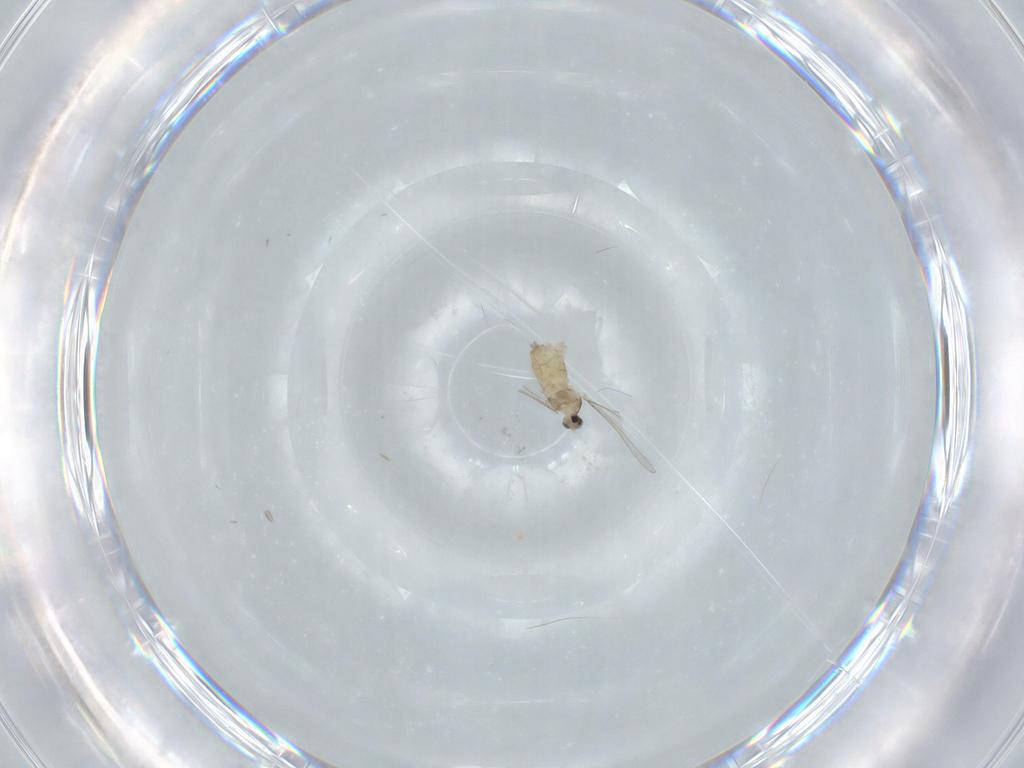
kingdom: Animalia
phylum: Arthropoda
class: Insecta
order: Diptera
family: Cecidomyiidae
